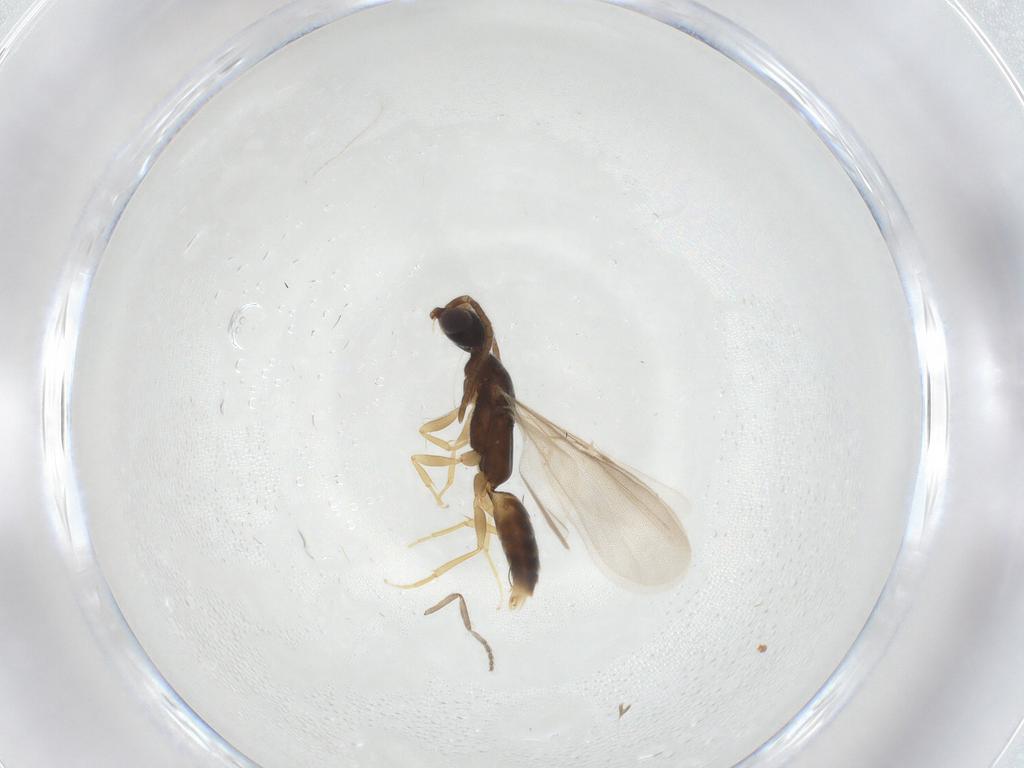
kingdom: Animalia
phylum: Arthropoda
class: Insecta
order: Hymenoptera
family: Bethylidae
